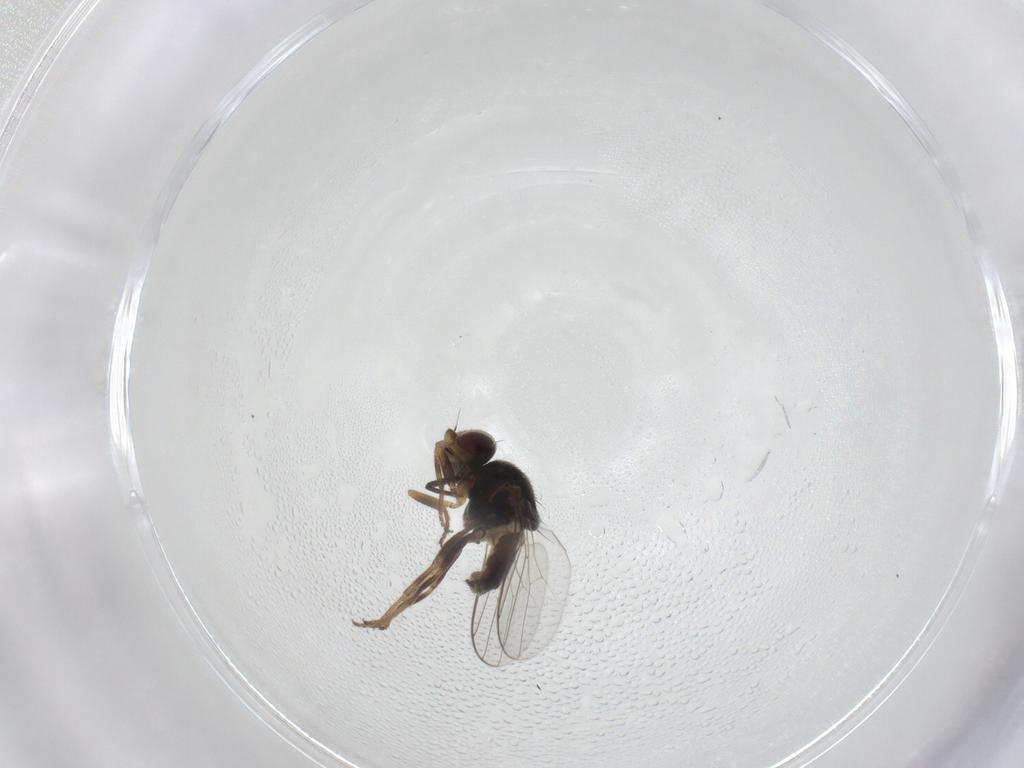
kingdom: Animalia
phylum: Arthropoda
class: Insecta
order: Diptera
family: Chloropidae
